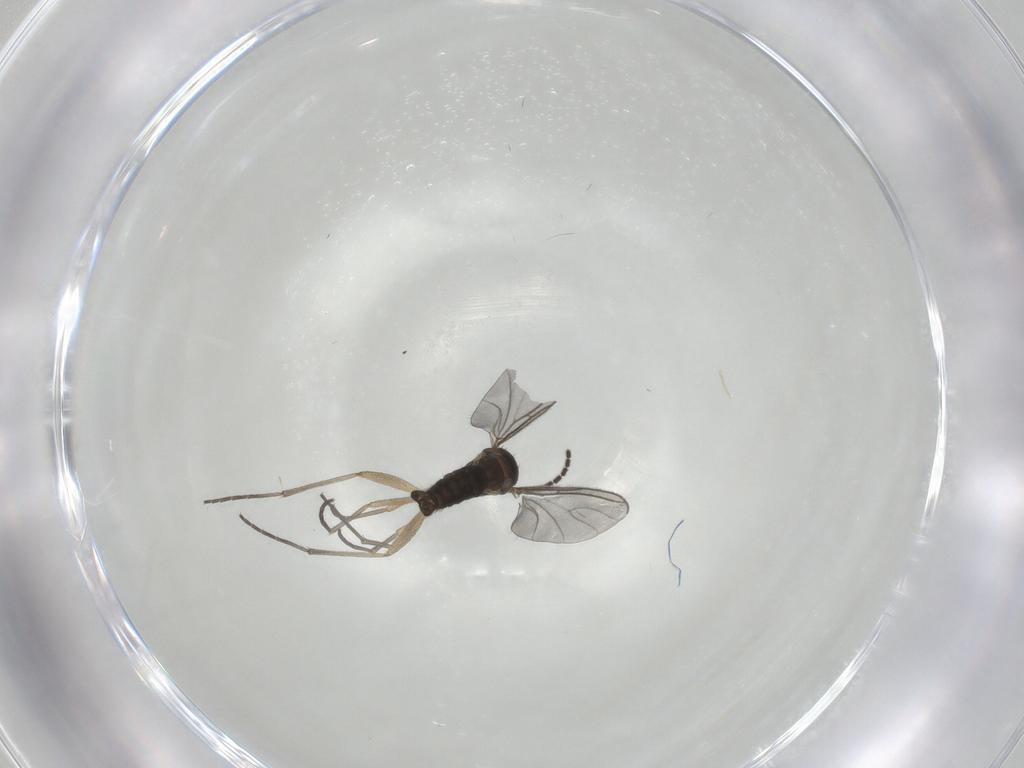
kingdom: Animalia
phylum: Arthropoda
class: Insecta
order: Diptera
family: Sciaridae
